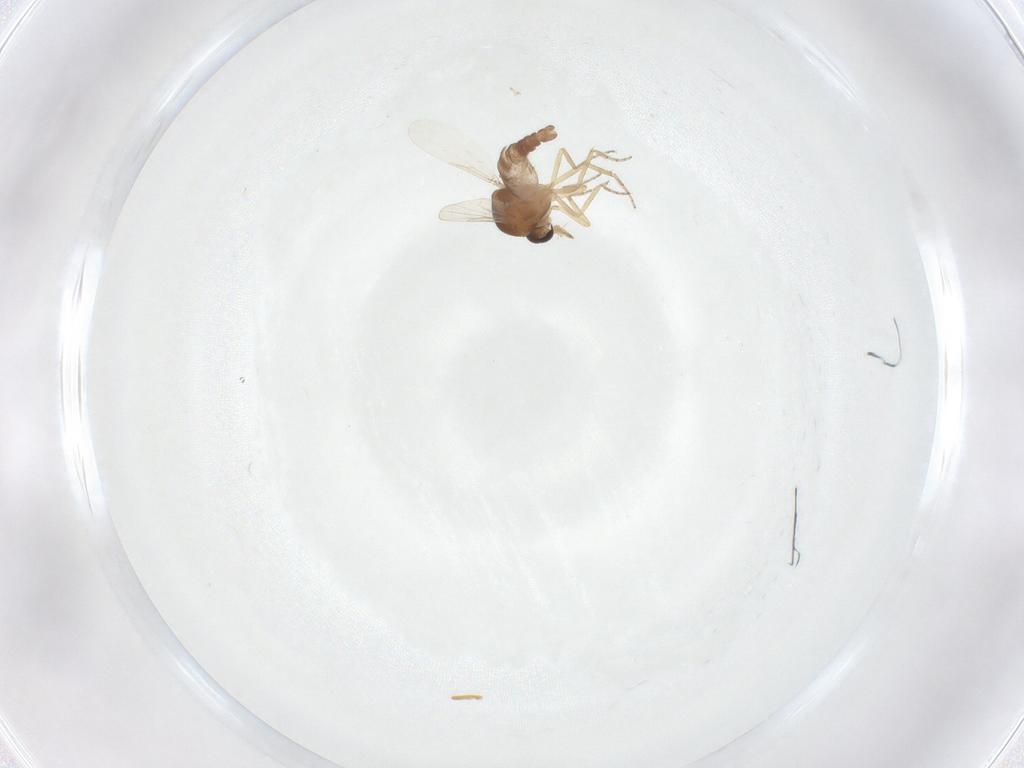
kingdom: Animalia
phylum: Arthropoda
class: Insecta
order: Diptera
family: Ceratopogonidae
